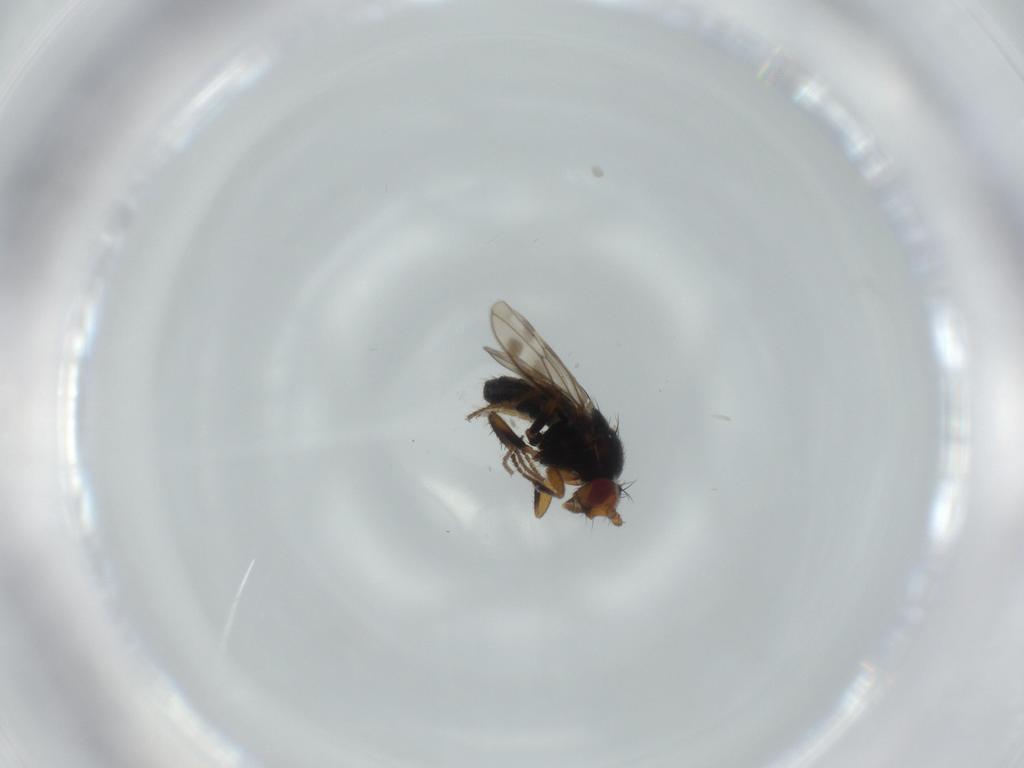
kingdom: Animalia
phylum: Arthropoda
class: Insecta
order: Diptera
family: Sphaeroceridae
